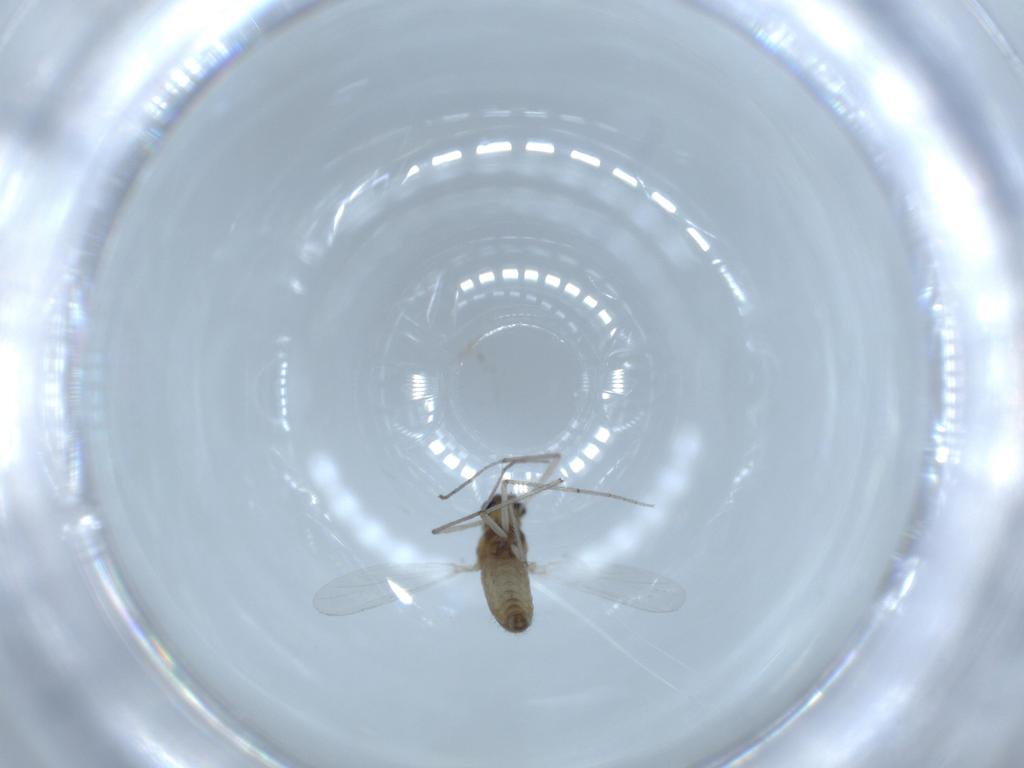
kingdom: Animalia
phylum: Arthropoda
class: Insecta
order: Diptera
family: Chironomidae
